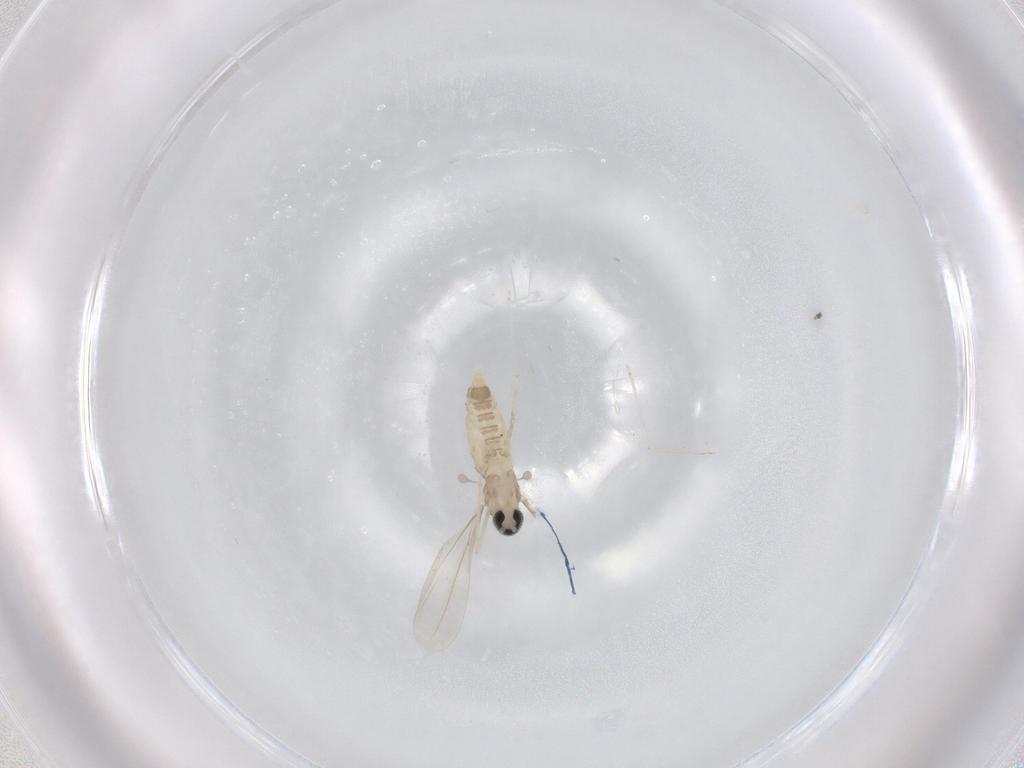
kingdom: Animalia
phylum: Arthropoda
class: Insecta
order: Diptera
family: Cecidomyiidae
